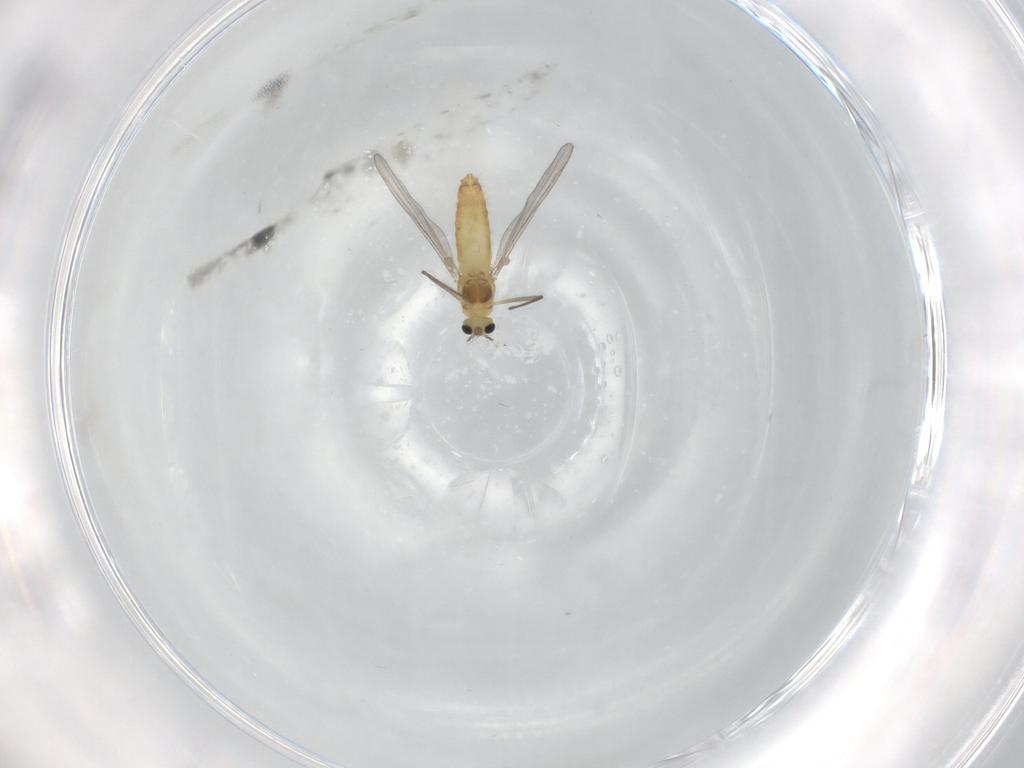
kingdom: Animalia
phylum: Arthropoda
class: Insecta
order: Diptera
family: Chironomidae
